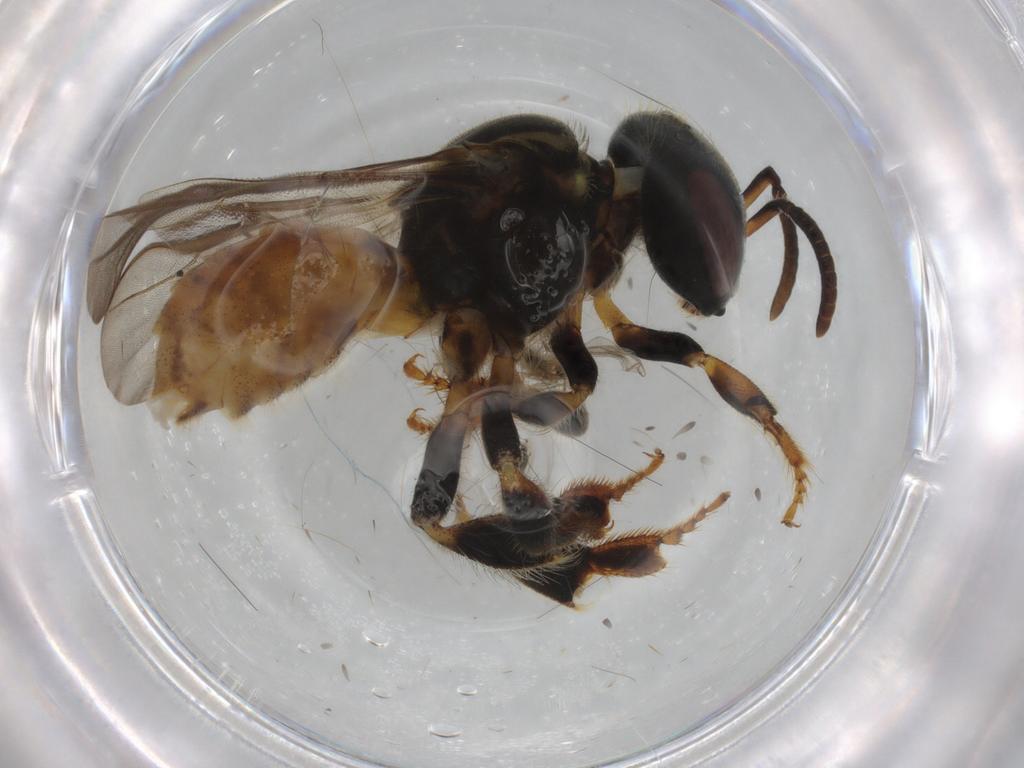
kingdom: Animalia
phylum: Arthropoda
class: Insecta
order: Hymenoptera
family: Apidae
